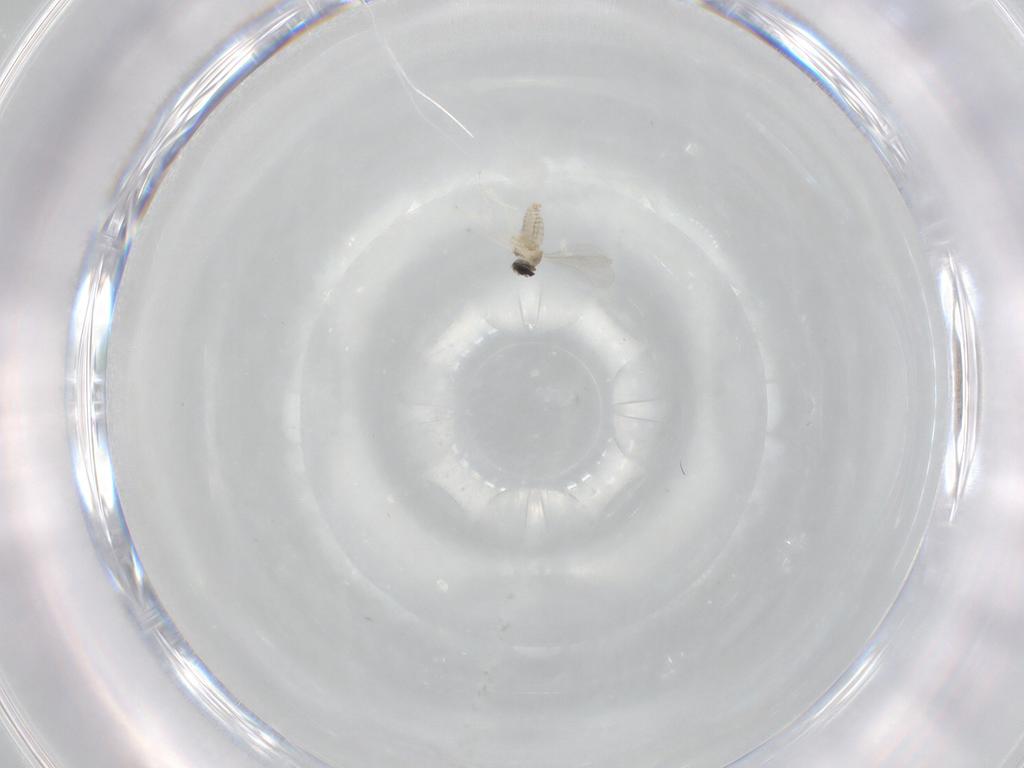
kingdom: Animalia
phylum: Arthropoda
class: Insecta
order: Diptera
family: Cecidomyiidae
